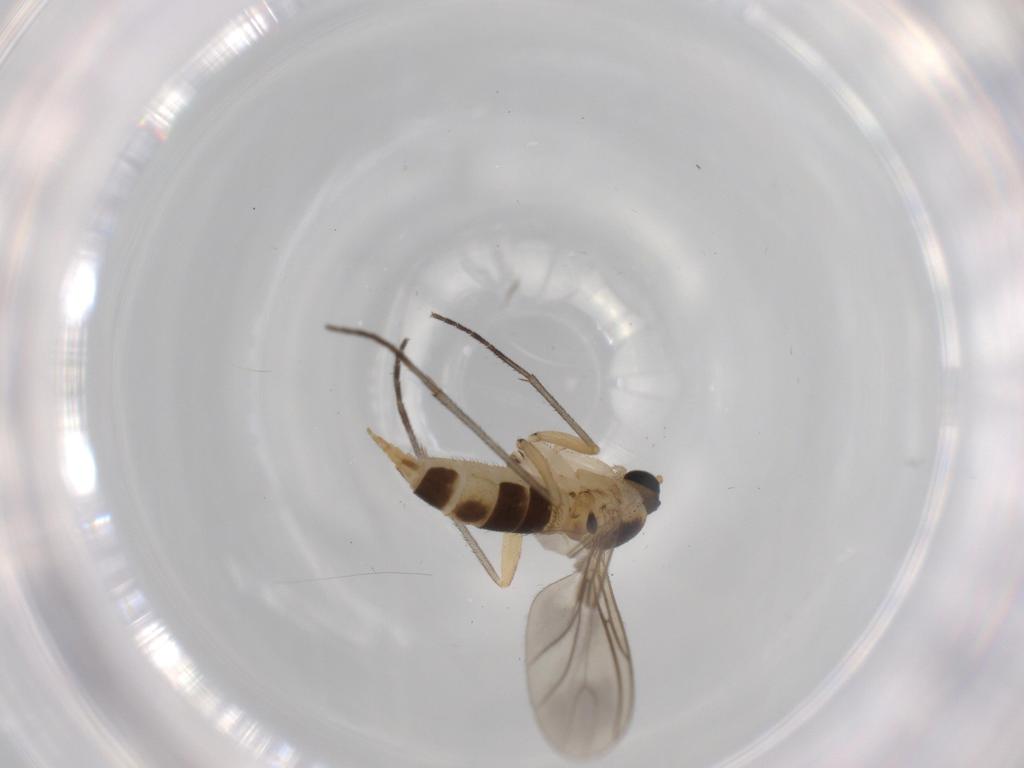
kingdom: Animalia
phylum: Arthropoda
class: Insecta
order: Diptera
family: Sciaridae
